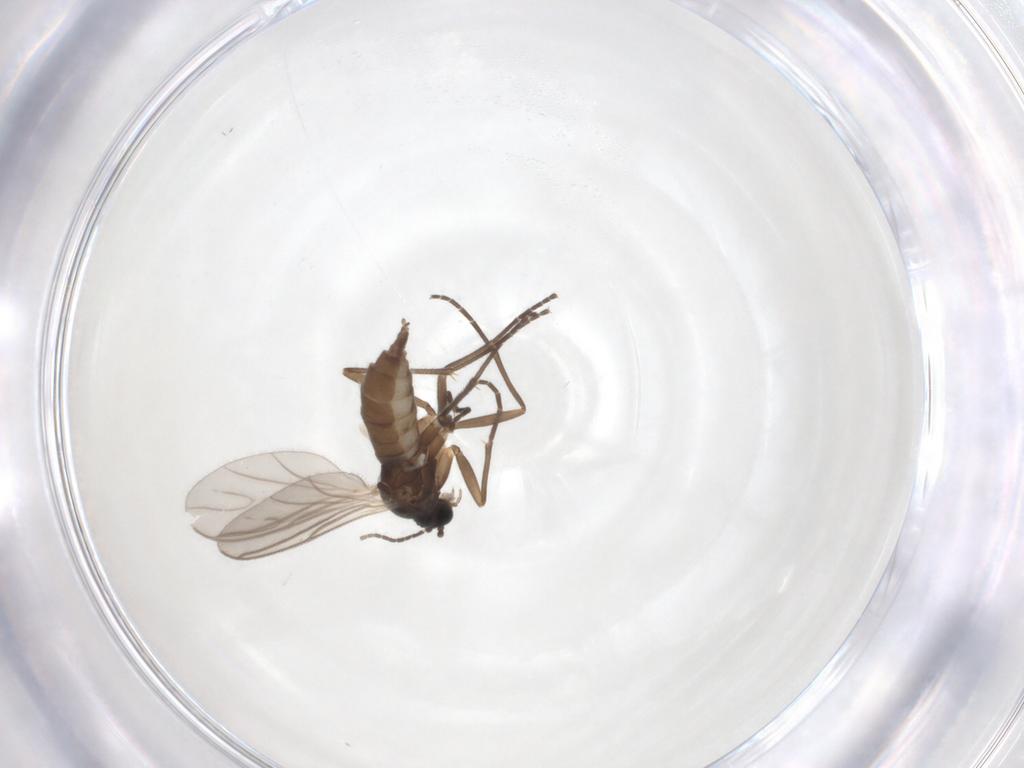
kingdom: Animalia
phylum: Arthropoda
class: Insecta
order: Diptera
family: Sciaridae
